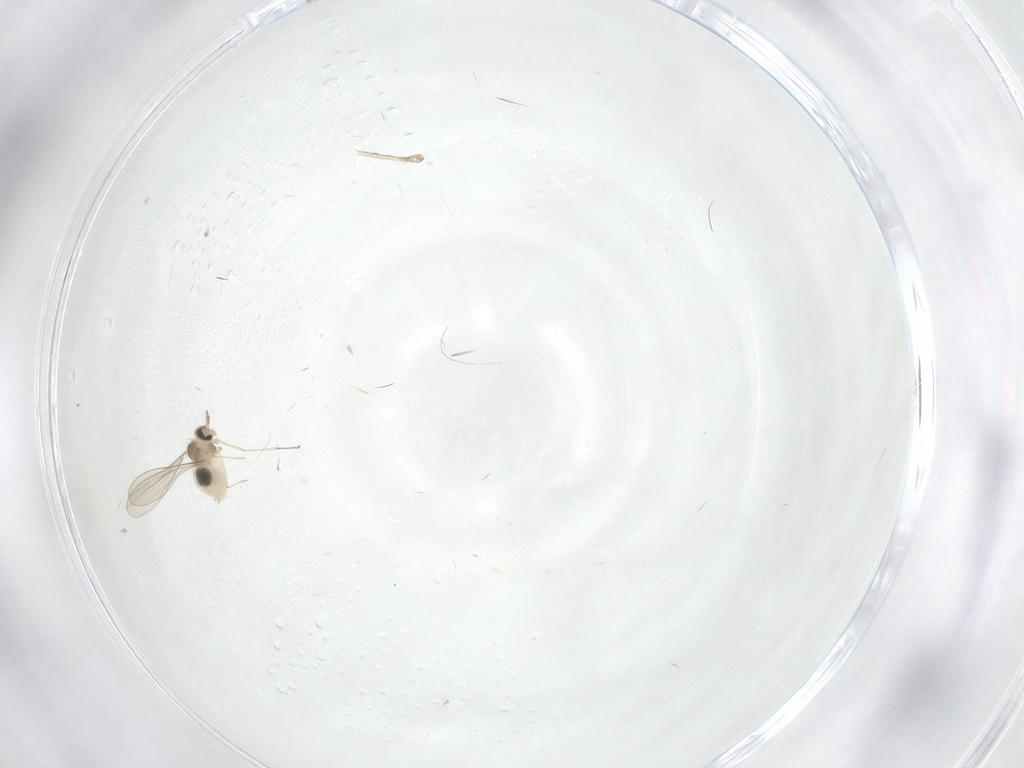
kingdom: Animalia
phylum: Arthropoda
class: Insecta
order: Diptera
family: Cecidomyiidae
